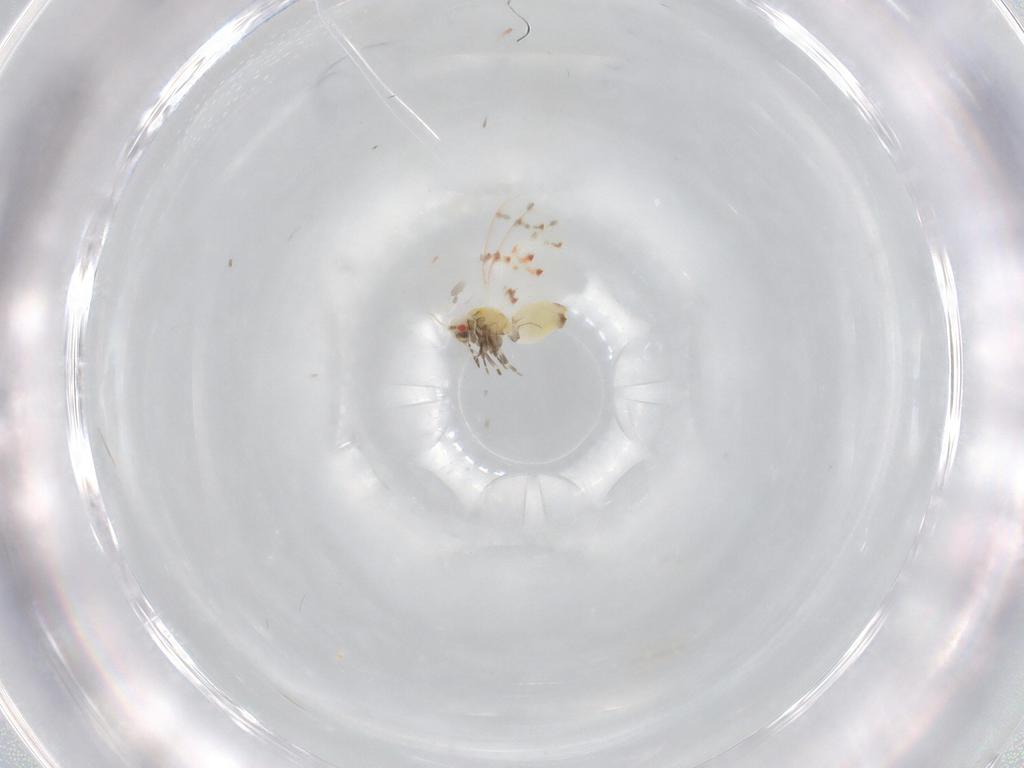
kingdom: Animalia
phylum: Arthropoda
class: Insecta
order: Hemiptera
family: Aleyrodidae
